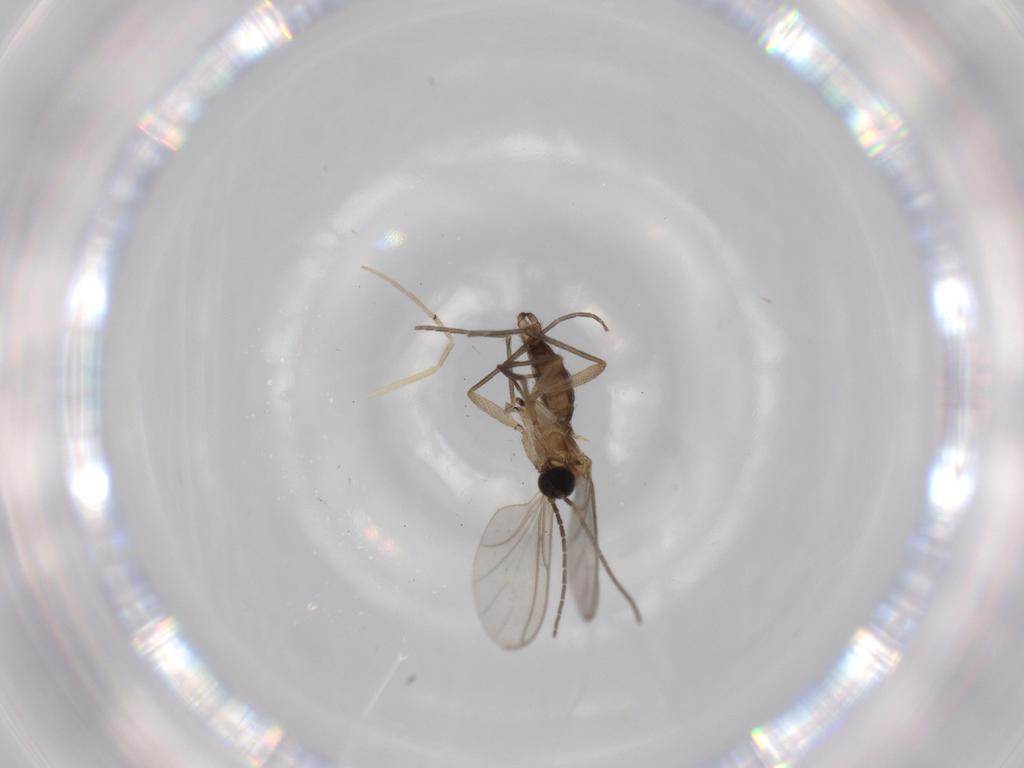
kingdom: Animalia
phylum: Arthropoda
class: Insecta
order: Diptera
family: Sciaridae
